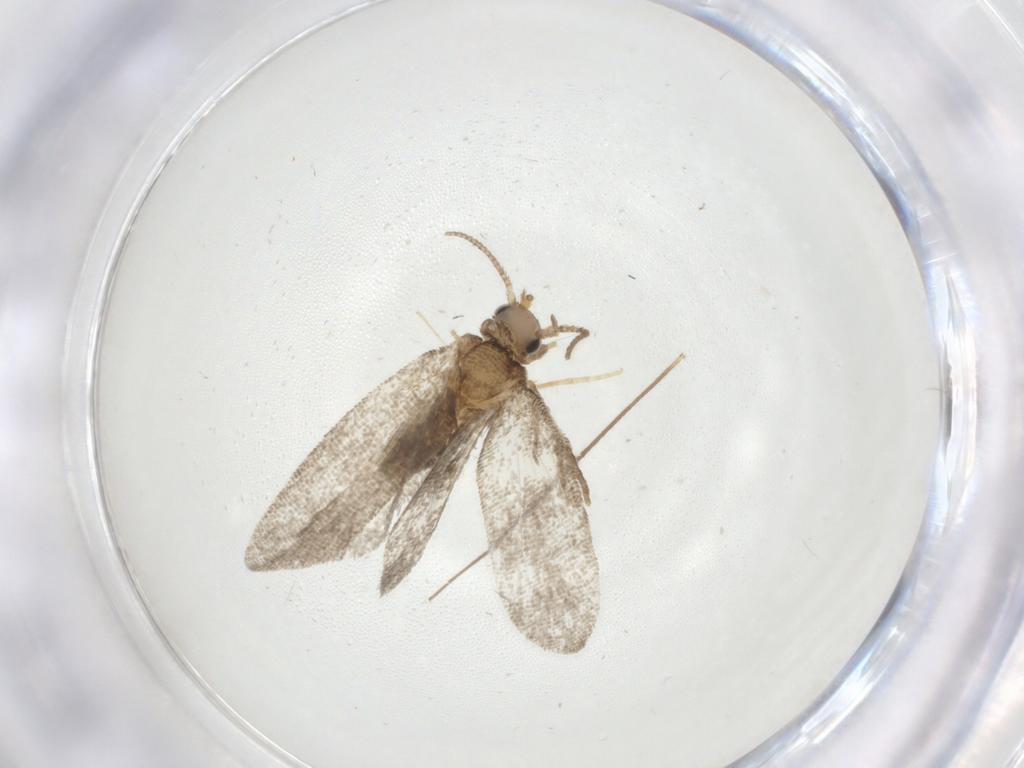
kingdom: Animalia
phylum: Arthropoda
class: Insecta
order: Lepidoptera
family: Psychidae
